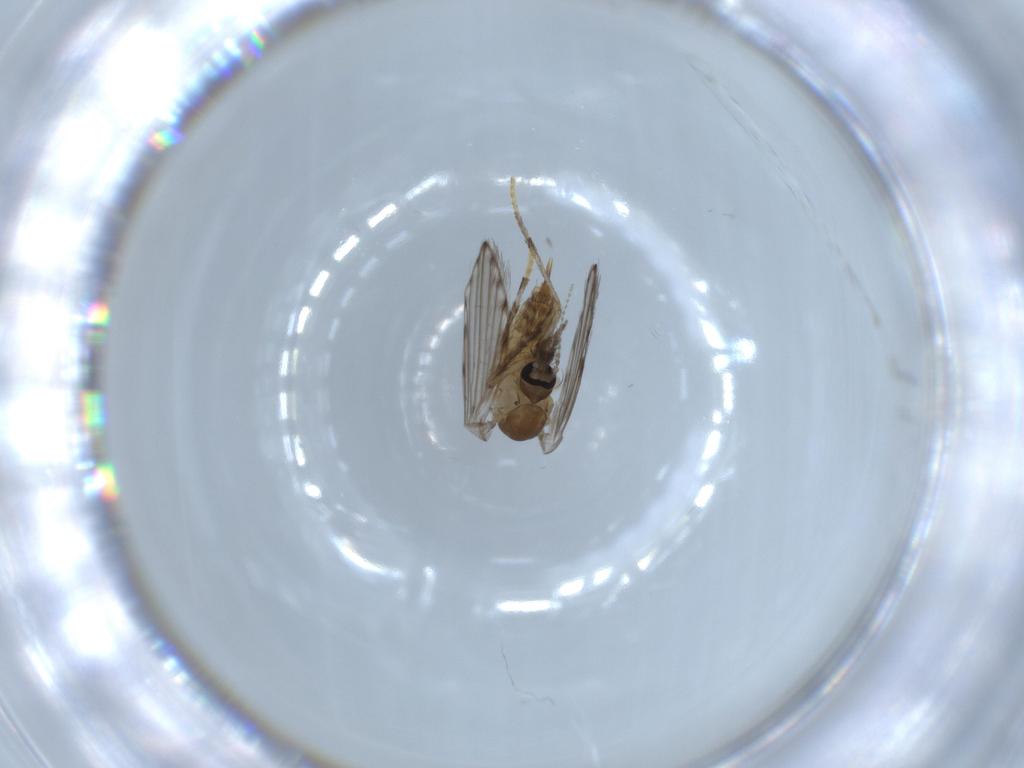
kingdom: Animalia
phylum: Arthropoda
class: Insecta
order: Diptera
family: Psychodidae
